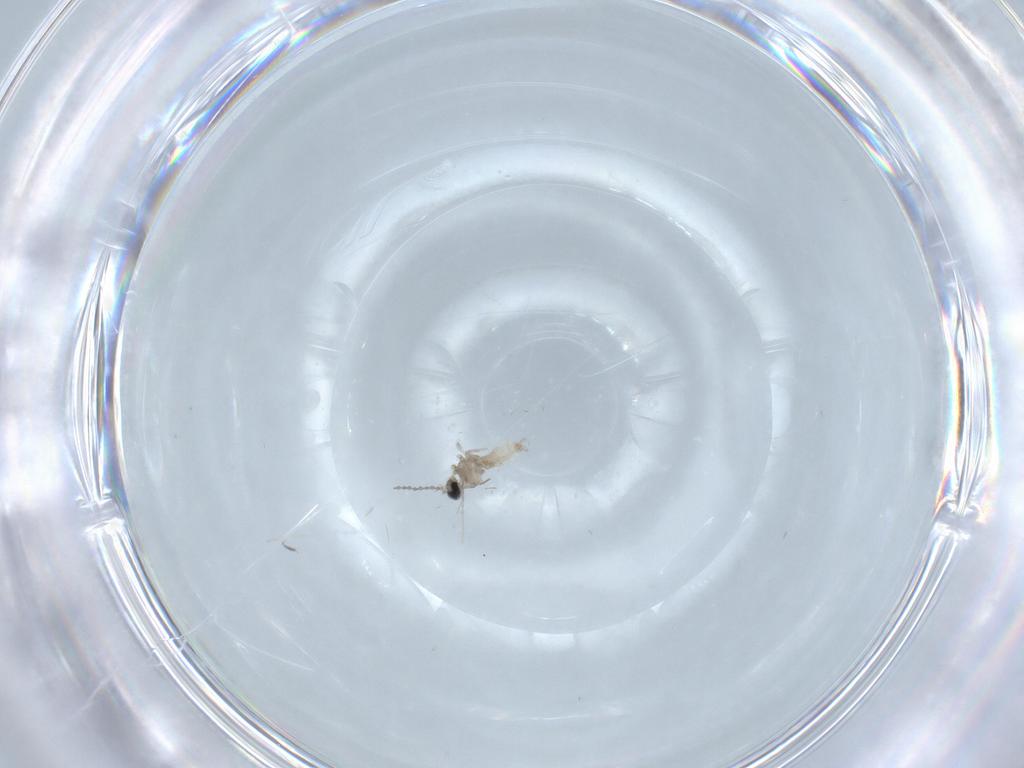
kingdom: Animalia
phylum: Arthropoda
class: Insecta
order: Diptera
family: Cecidomyiidae
